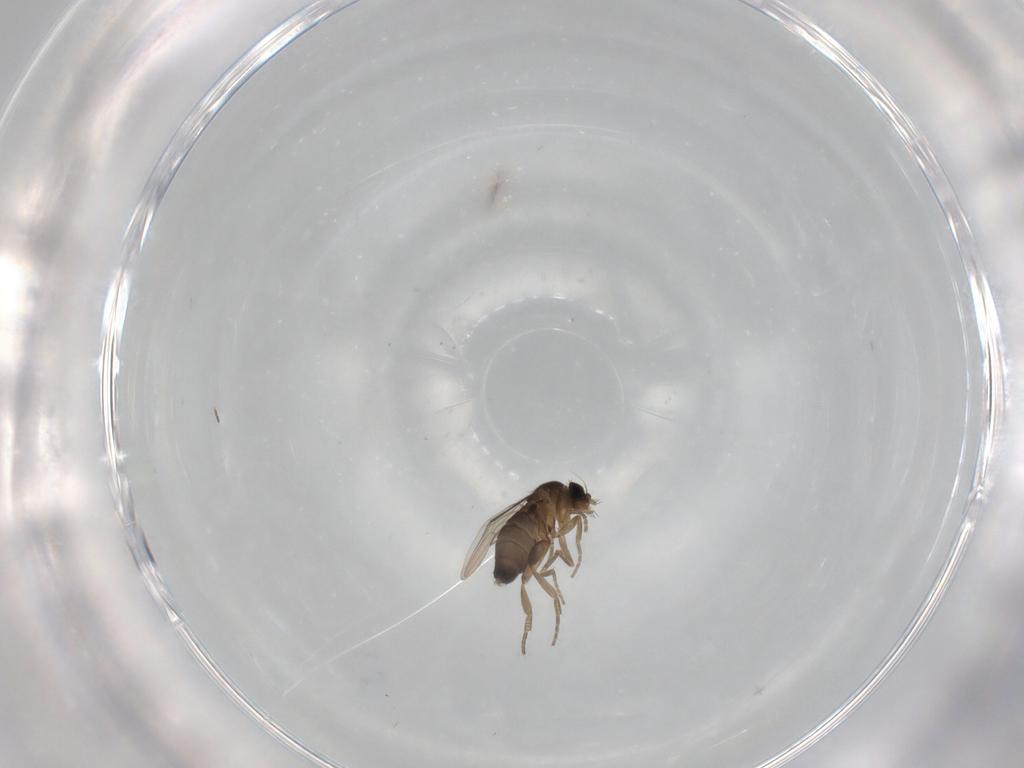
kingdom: Animalia
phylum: Arthropoda
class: Insecta
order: Diptera
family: Phoridae
